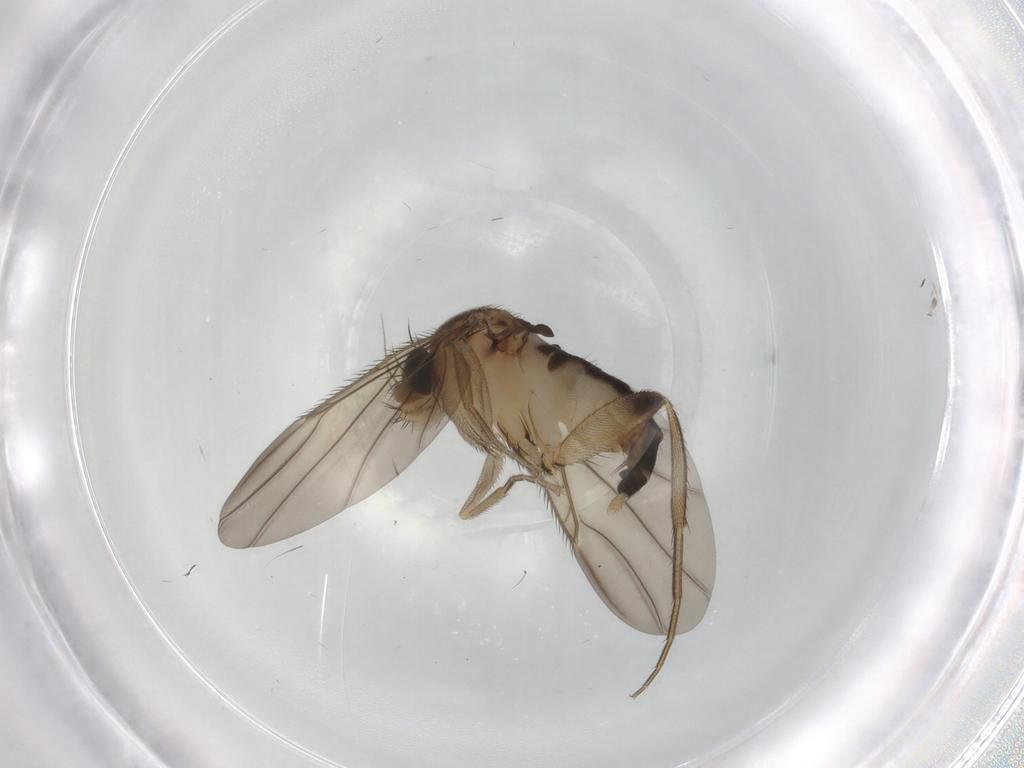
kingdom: Animalia
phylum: Arthropoda
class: Insecta
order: Diptera
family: Phoridae
